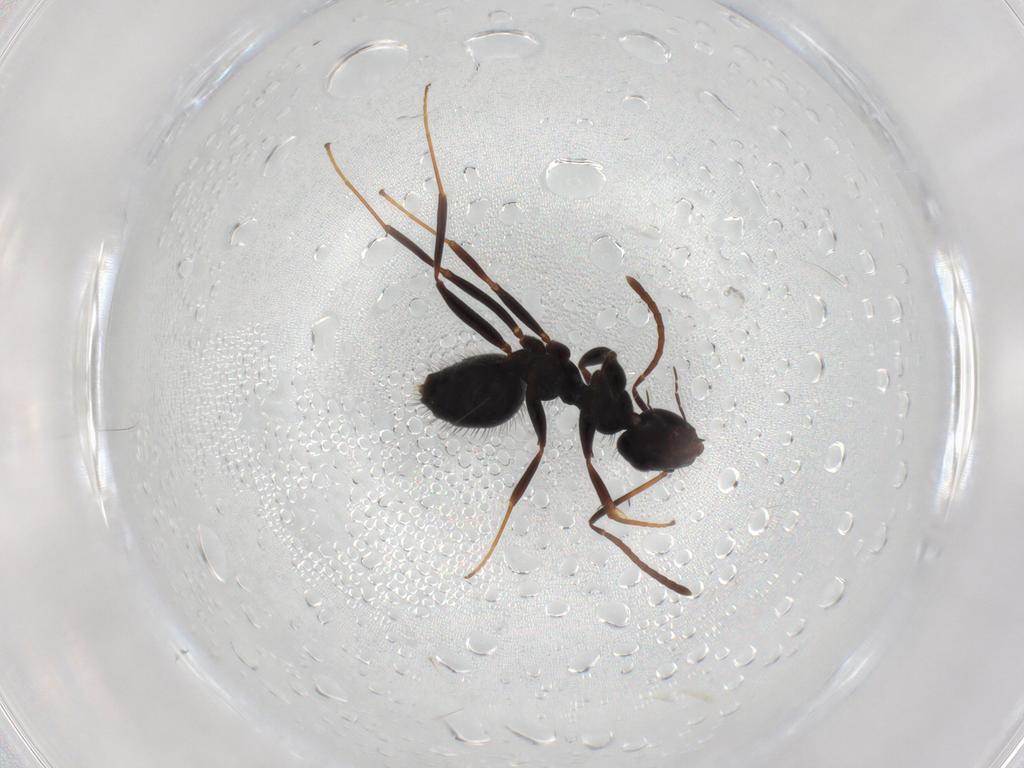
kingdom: Animalia
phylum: Arthropoda
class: Insecta
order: Hymenoptera
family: Formicidae
